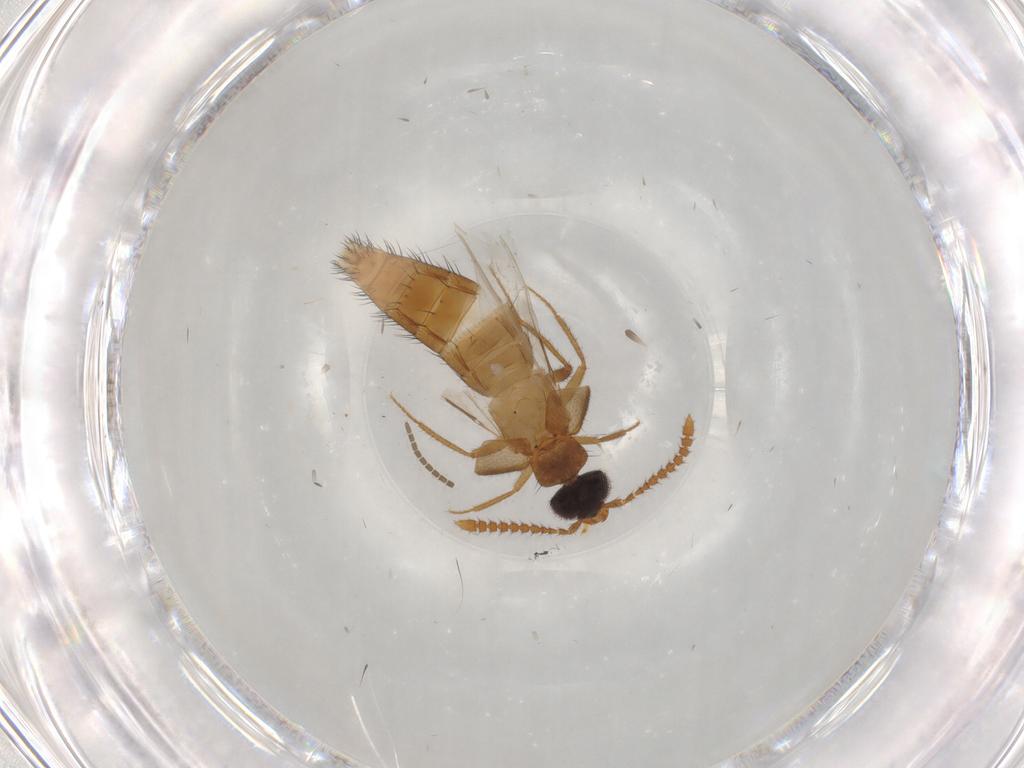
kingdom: Animalia
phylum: Arthropoda
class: Insecta
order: Coleoptera
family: Staphylinidae
